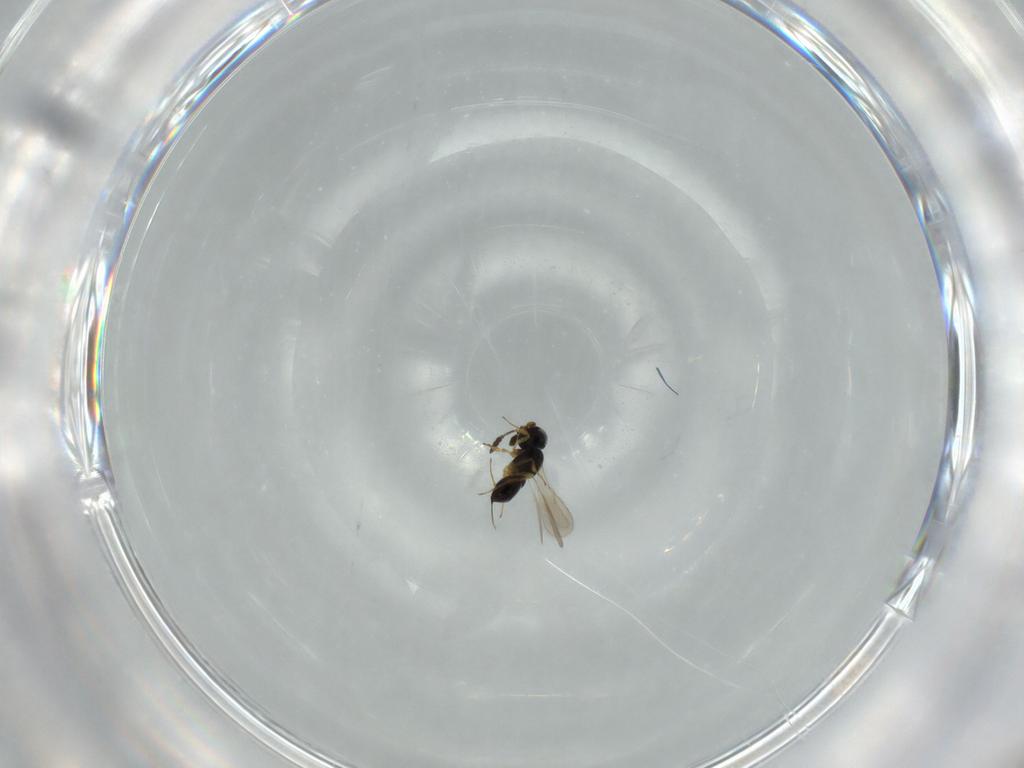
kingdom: Animalia
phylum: Arthropoda
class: Insecta
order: Hymenoptera
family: Scelionidae
